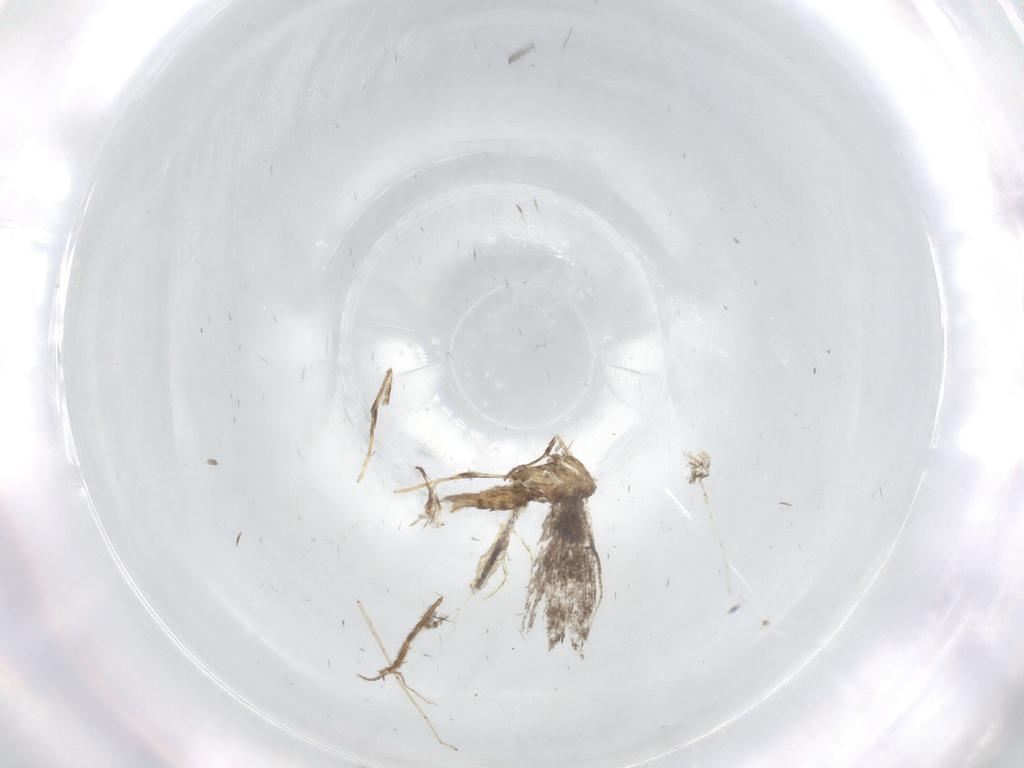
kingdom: Animalia
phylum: Arthropoda
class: Insecta
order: Lepidoptera
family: Gracillariidae
